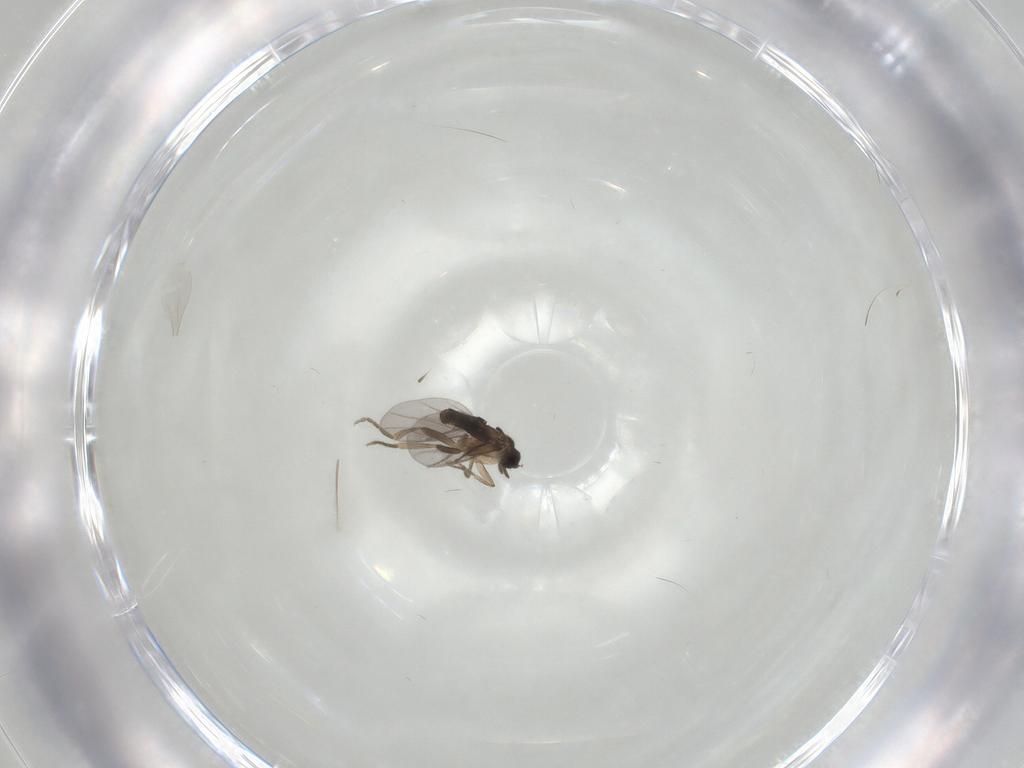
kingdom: Animalia
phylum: Arthropoda
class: Insecta
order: Diptera
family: Cecidomyiidae
